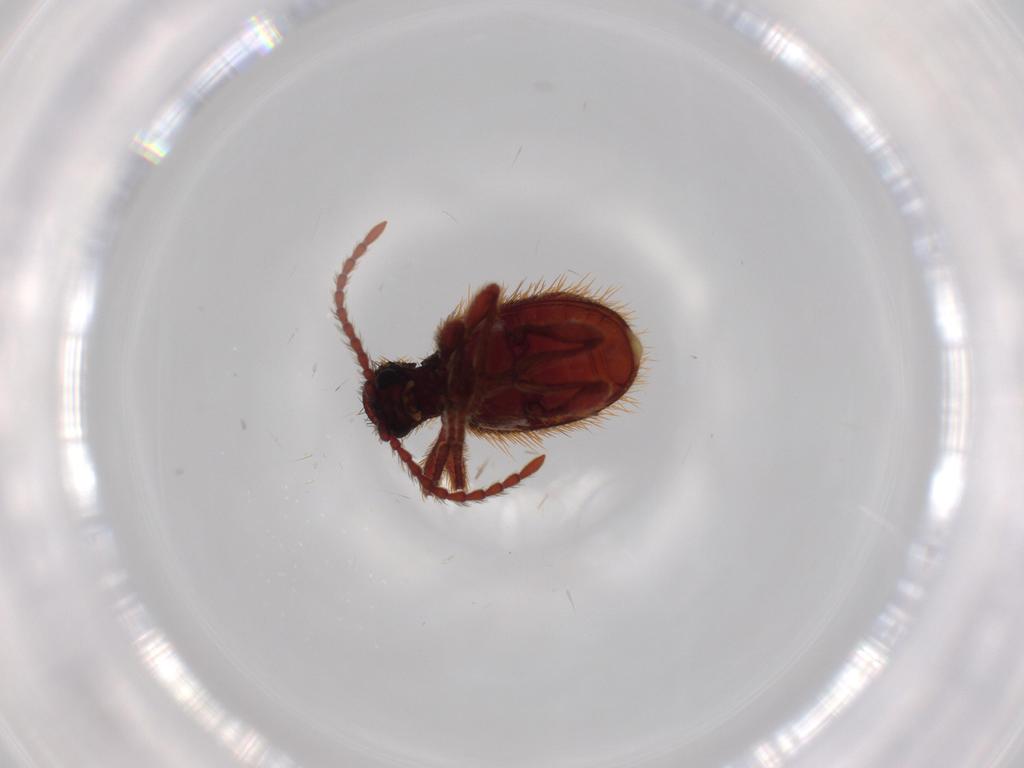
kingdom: Animalia
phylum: Arthropoda
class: Insecta
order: Coleoptera
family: Ptinidae
